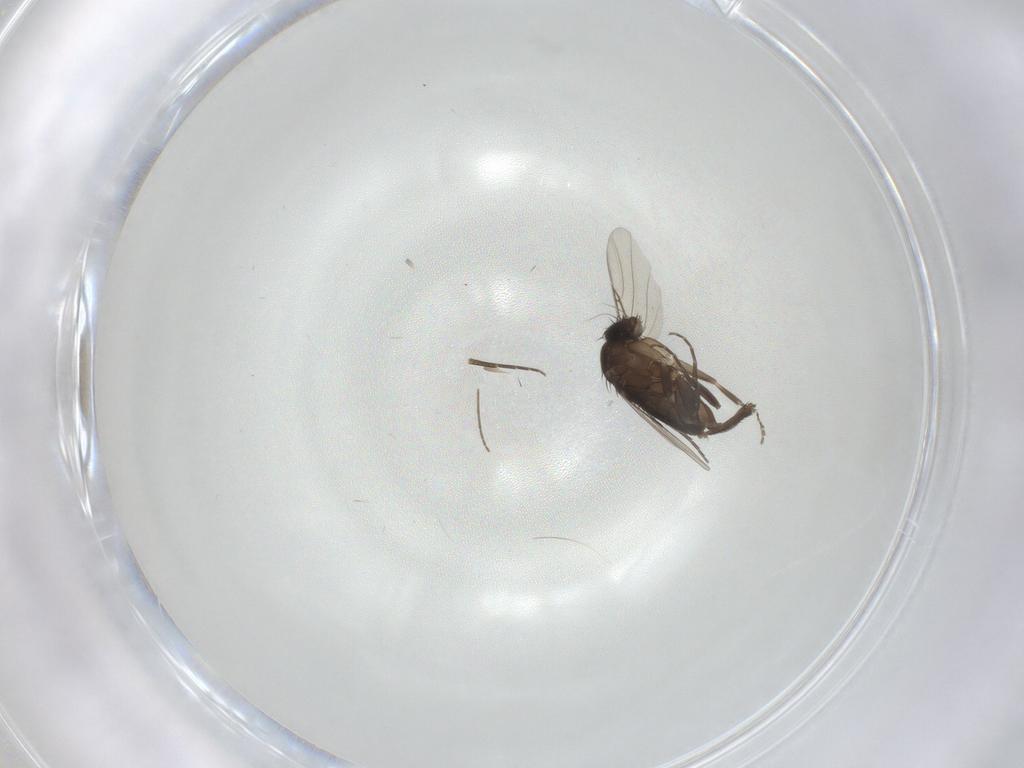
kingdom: Animalia
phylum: Arthropoda
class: Insecta
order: Diptera
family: Phoridae
